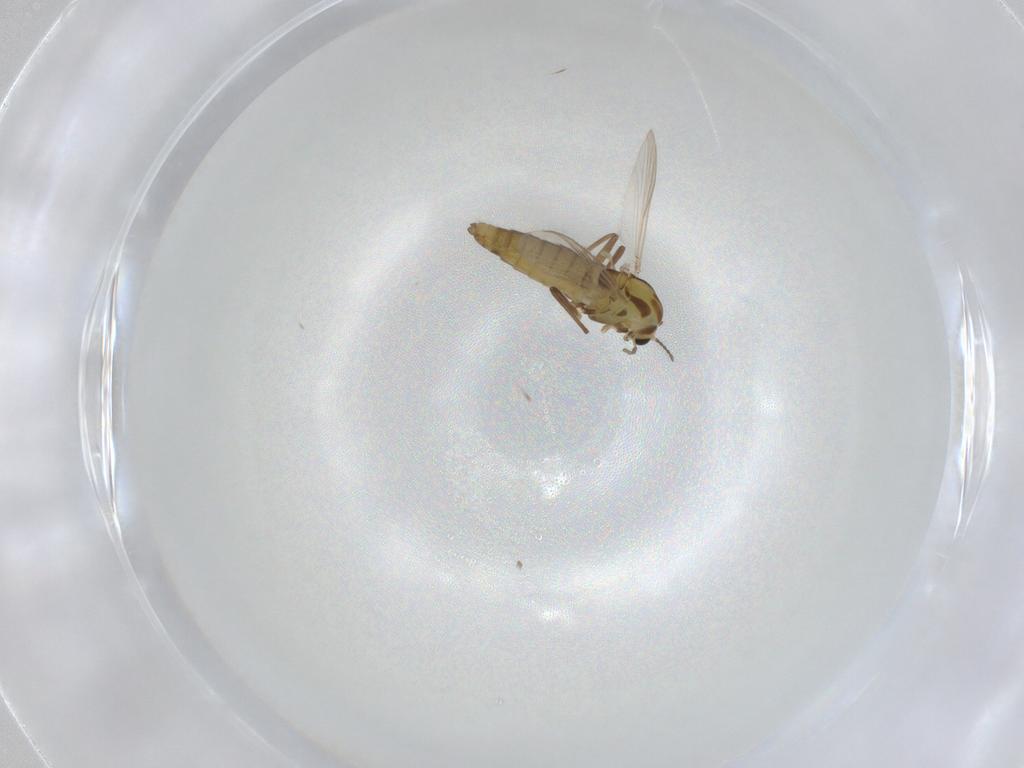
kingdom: Animalia
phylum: Arthropoda
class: Insecta
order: Diptera
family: Chironomidae
